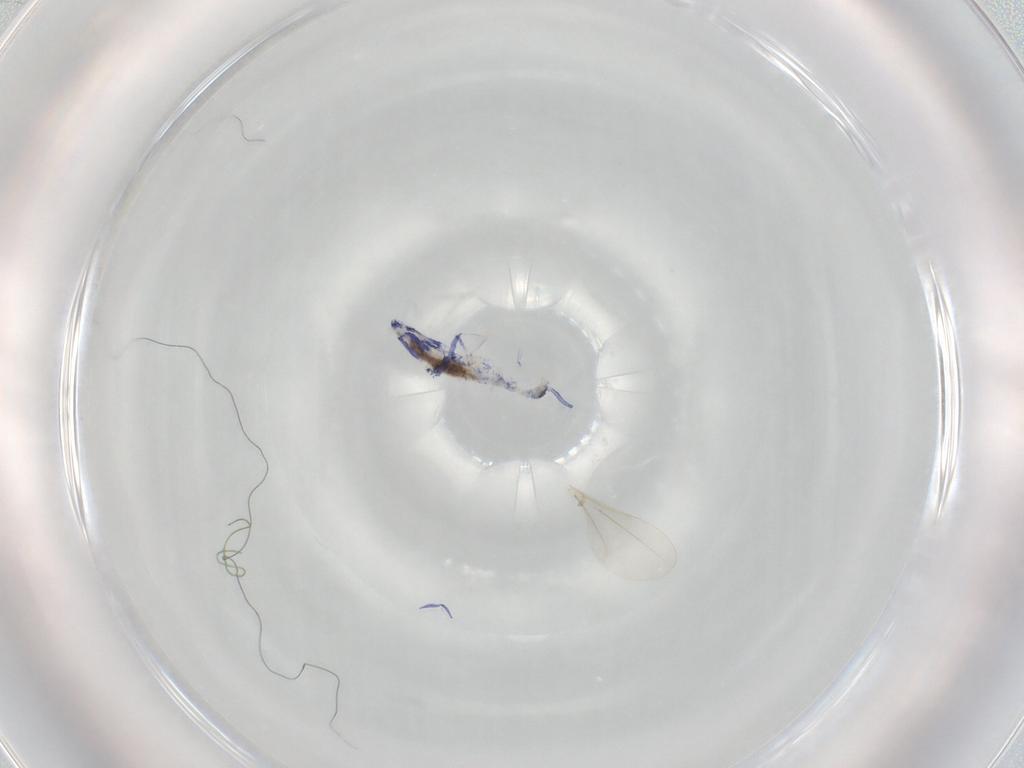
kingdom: Animalia
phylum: Arthropoda
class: Collembola
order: Entomobryomorpha
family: Entomobryidae
